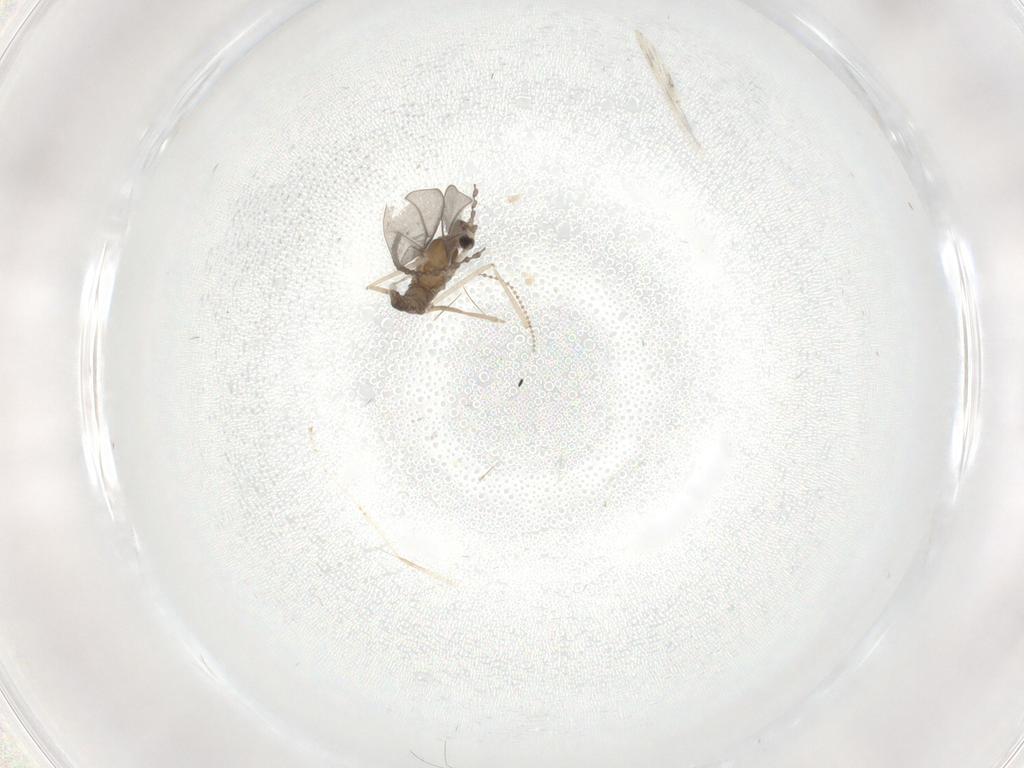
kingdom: Animalia
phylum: Arthropoda
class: Insecta
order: Diptera
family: Cecidomyiidae
